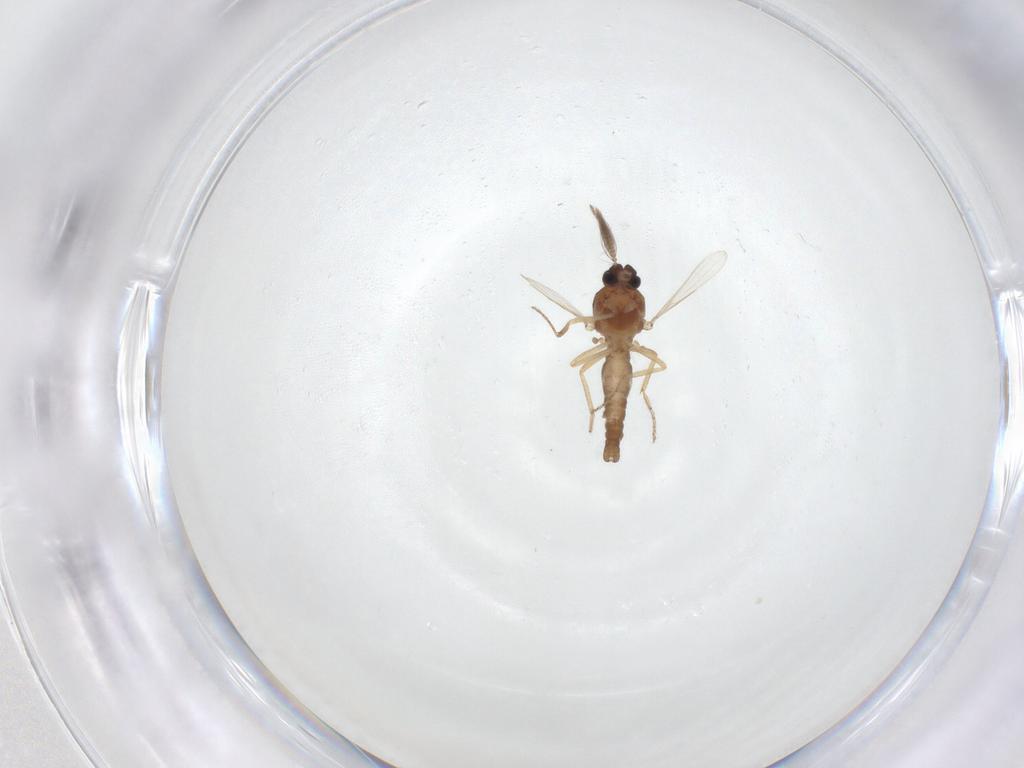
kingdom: Animalia
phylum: Arthropoda
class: Insecta
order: Diptera
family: Ceratopogonidae
